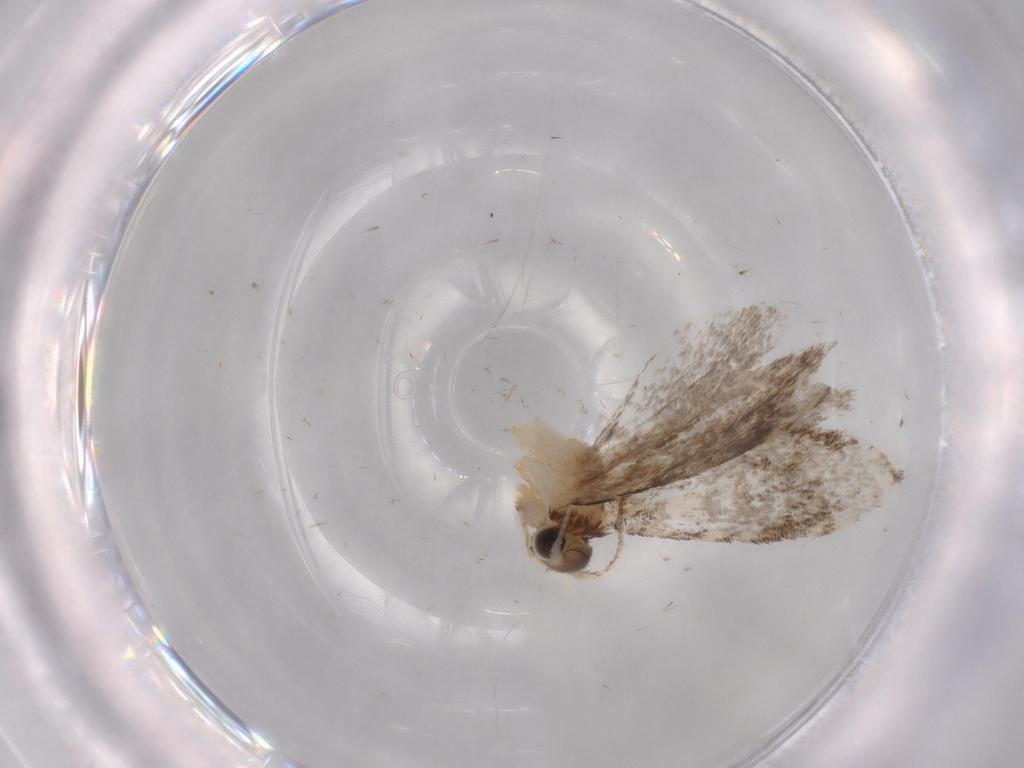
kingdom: Animalia
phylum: Arthropoda
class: Insecta
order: Lepidoptera
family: Tineidae
